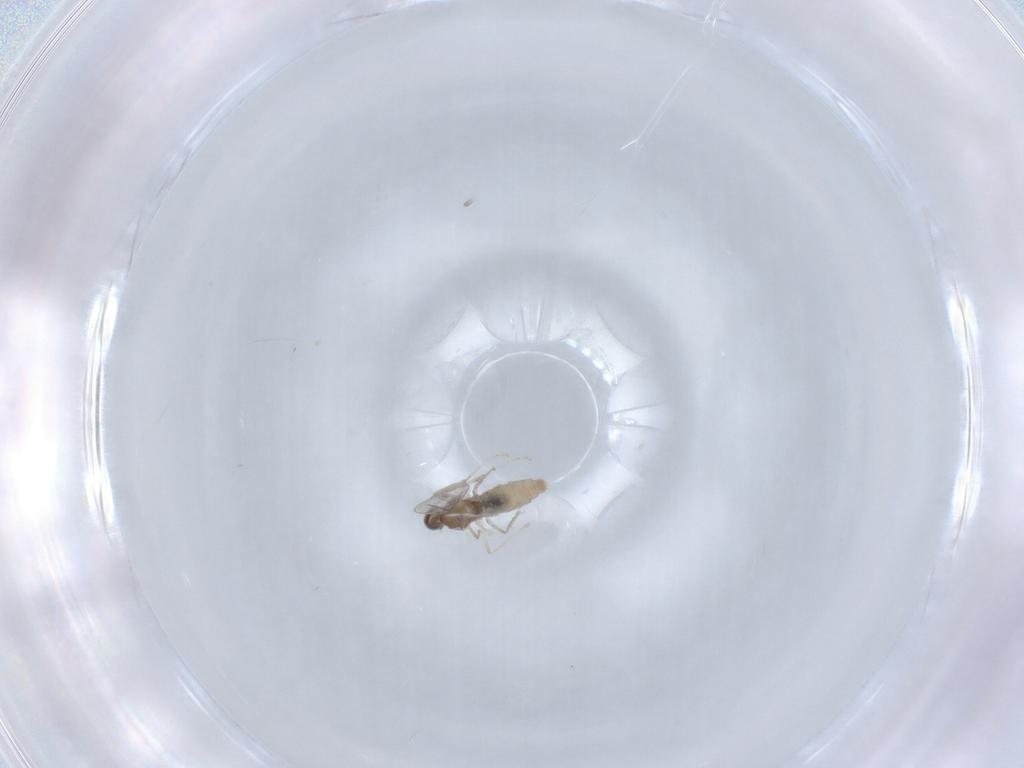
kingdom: Animalia
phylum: Arthropoda
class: Insecta
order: Diptera
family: Cecidomyiidae
